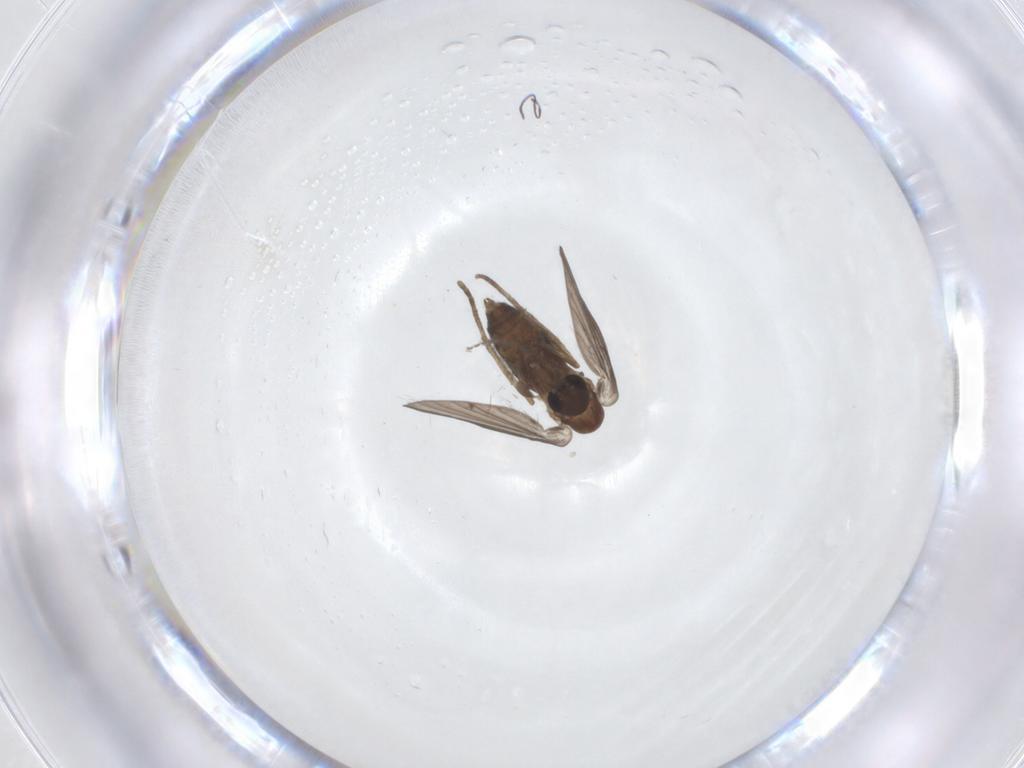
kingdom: Animalia
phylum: Arthropoda
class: Insecta
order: Diptera
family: Psychodidae
